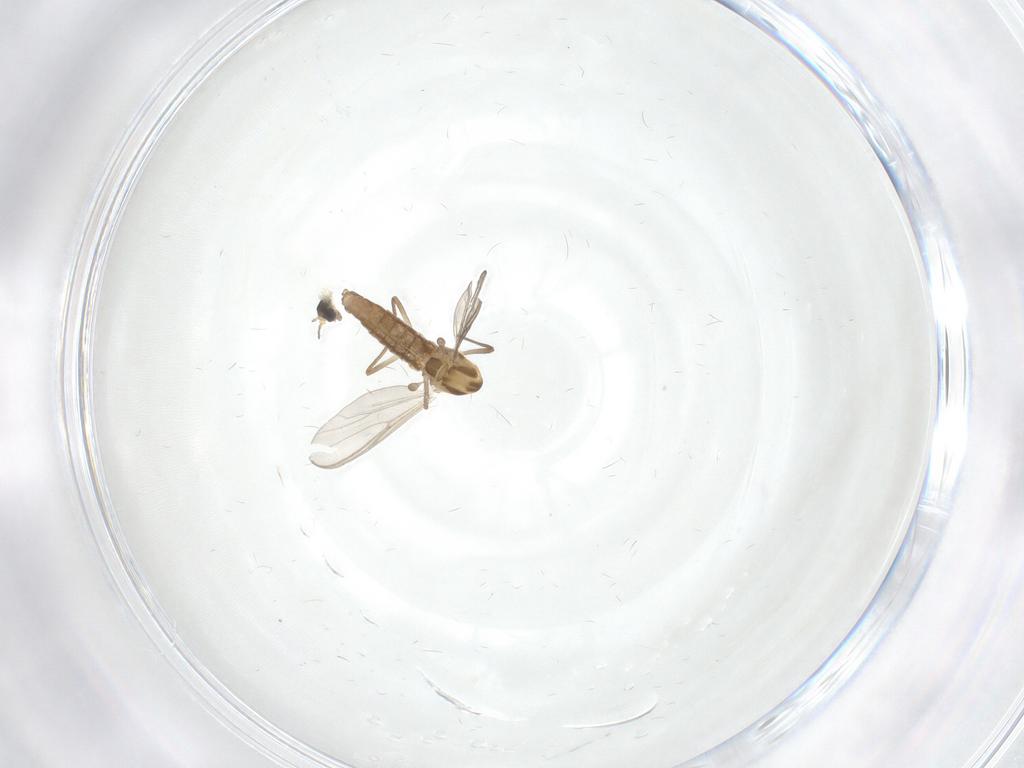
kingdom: Animalia
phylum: Arthropoda
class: Insecta
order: Diptera
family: Chironomidae
